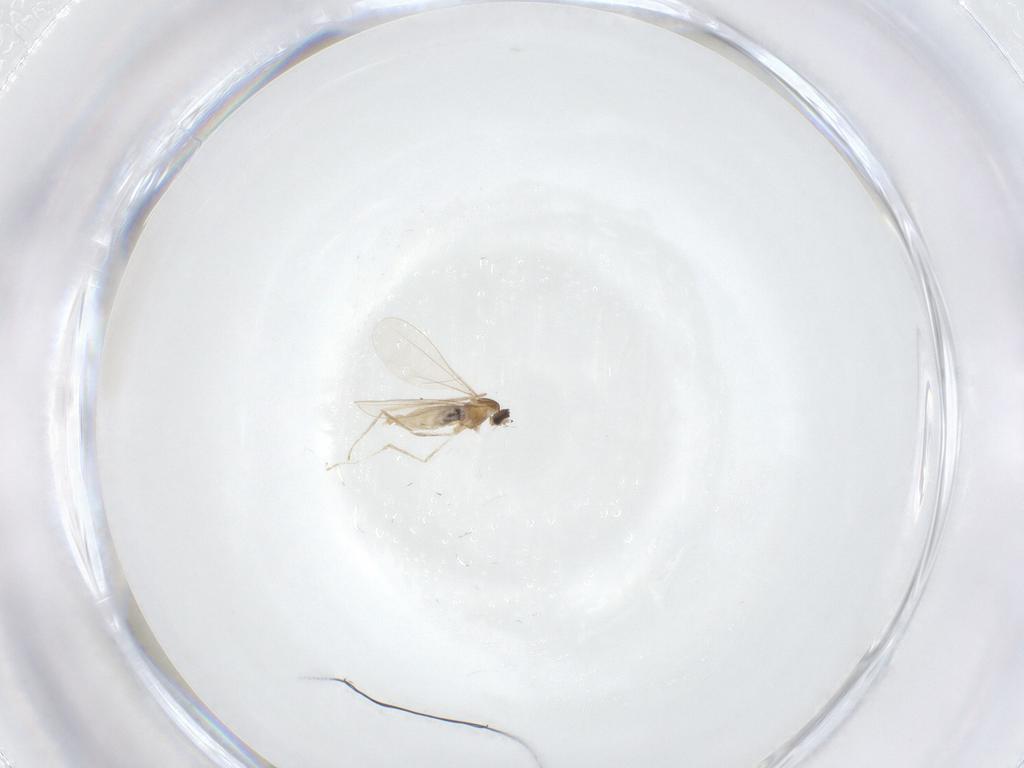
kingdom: Animalia
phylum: Arthropoda
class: Insecta
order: Diptera
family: Cecidomyiidae
